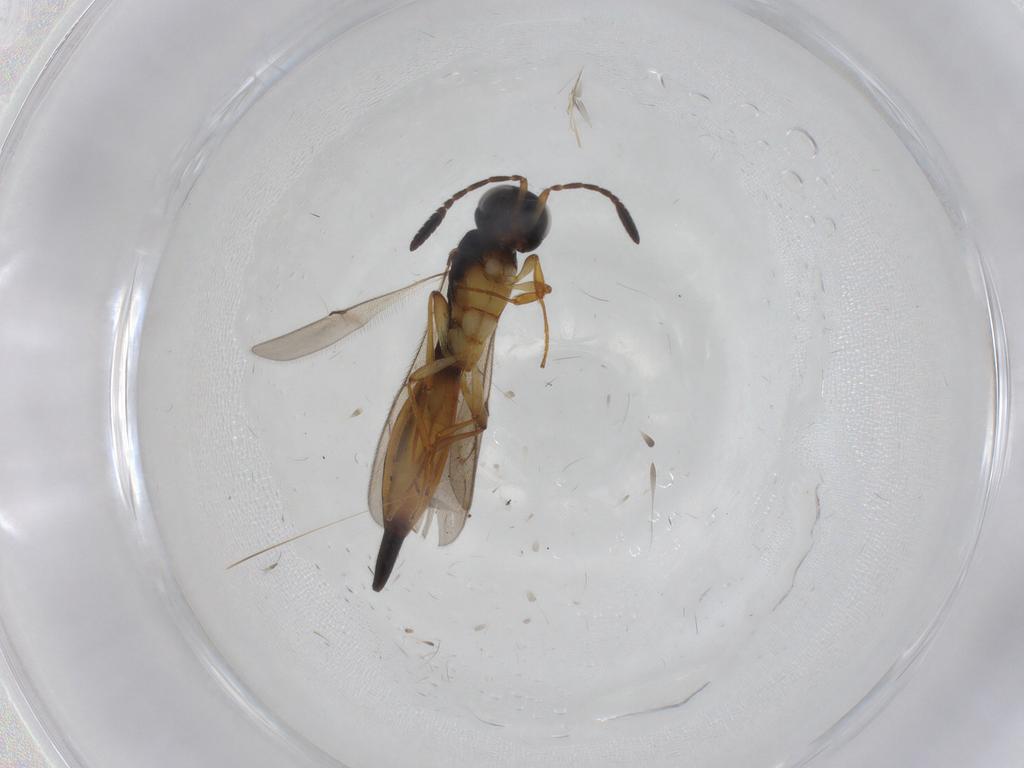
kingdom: Animalia
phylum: Arthropoda
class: Insecta
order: Hymenoptera
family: Scelionidae
